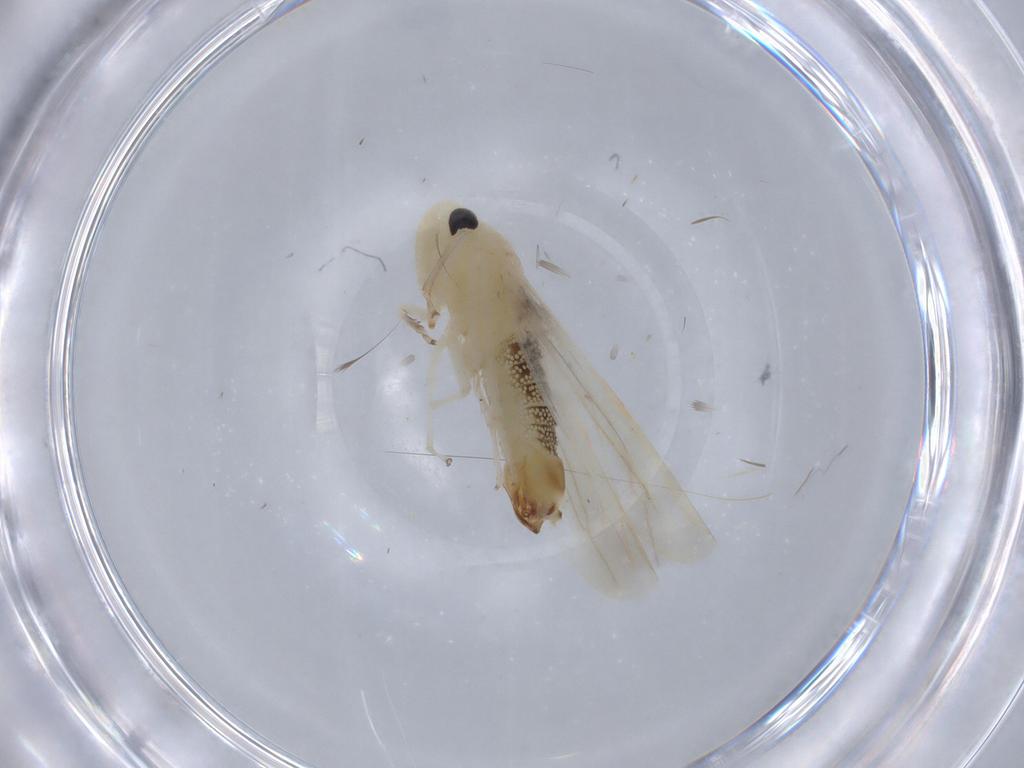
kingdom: Animalia
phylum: Arthropoda
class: Insecta
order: Hemiptera
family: Cicadellidae
